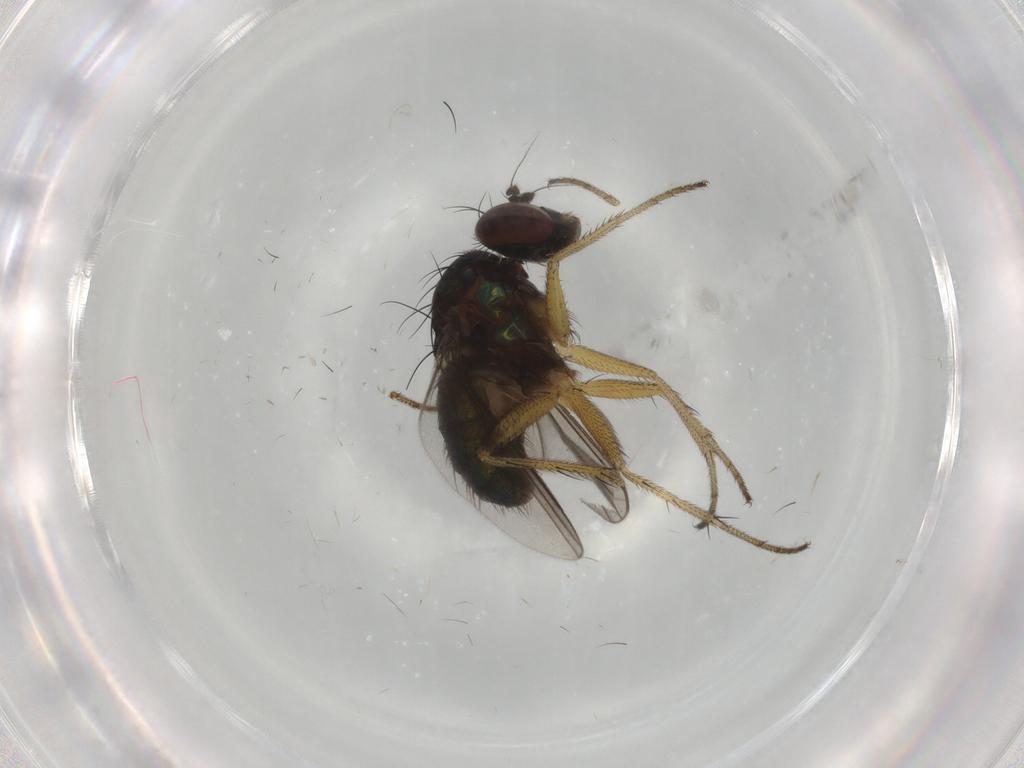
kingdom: Animalia
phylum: Arthropoda
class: Insecta
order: Diptera
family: Dolichopodidae
